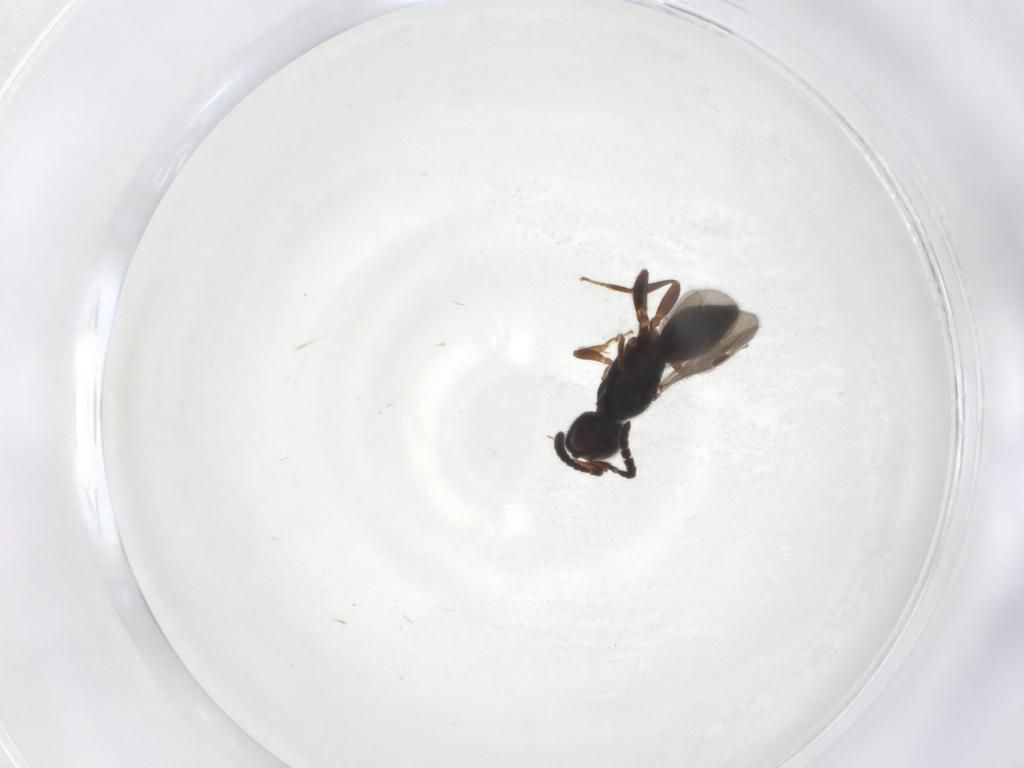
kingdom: Animalia
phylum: Arthropoda
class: Insecta
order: Hymenoptera
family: Megaspilidae
